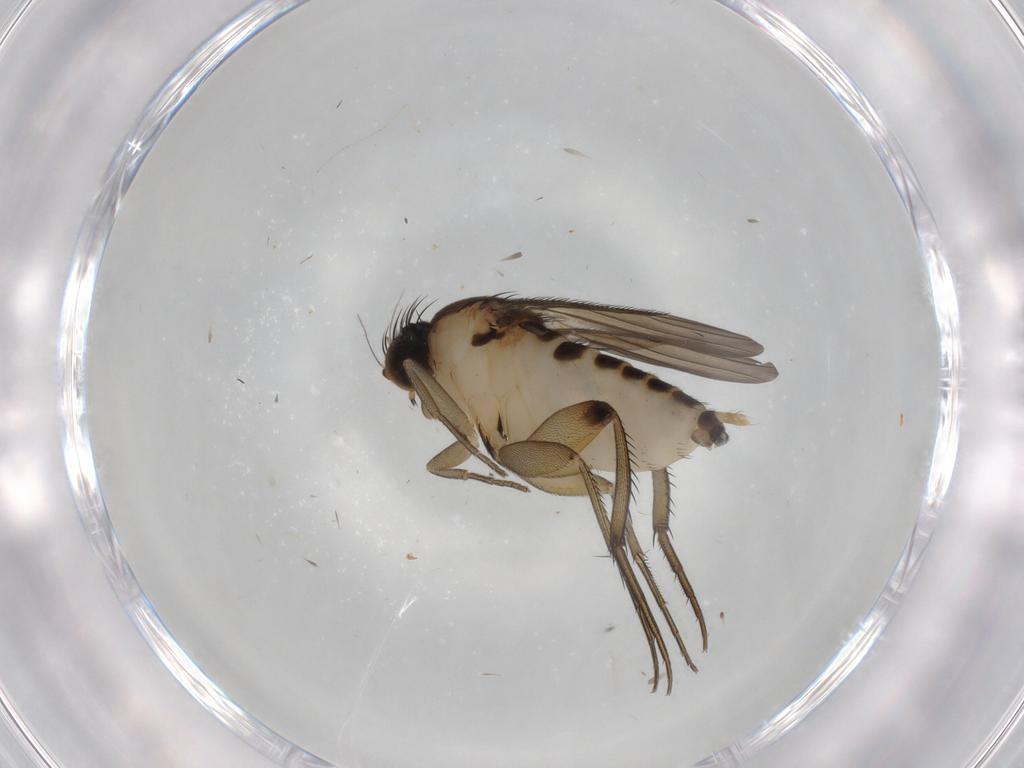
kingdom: Animalia
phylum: Arthropoda
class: Insecta
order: Diptera
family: Phoridae
